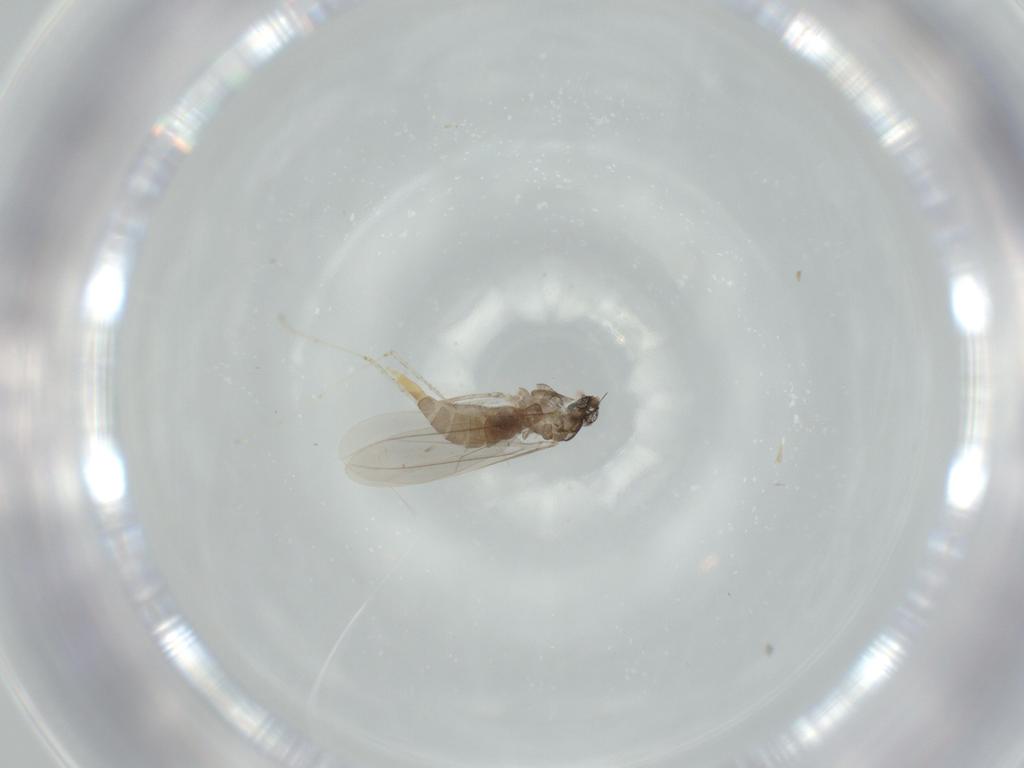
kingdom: Animalia
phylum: Arthropoda
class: Insecta
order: Diptera
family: Cecidomyiidae
